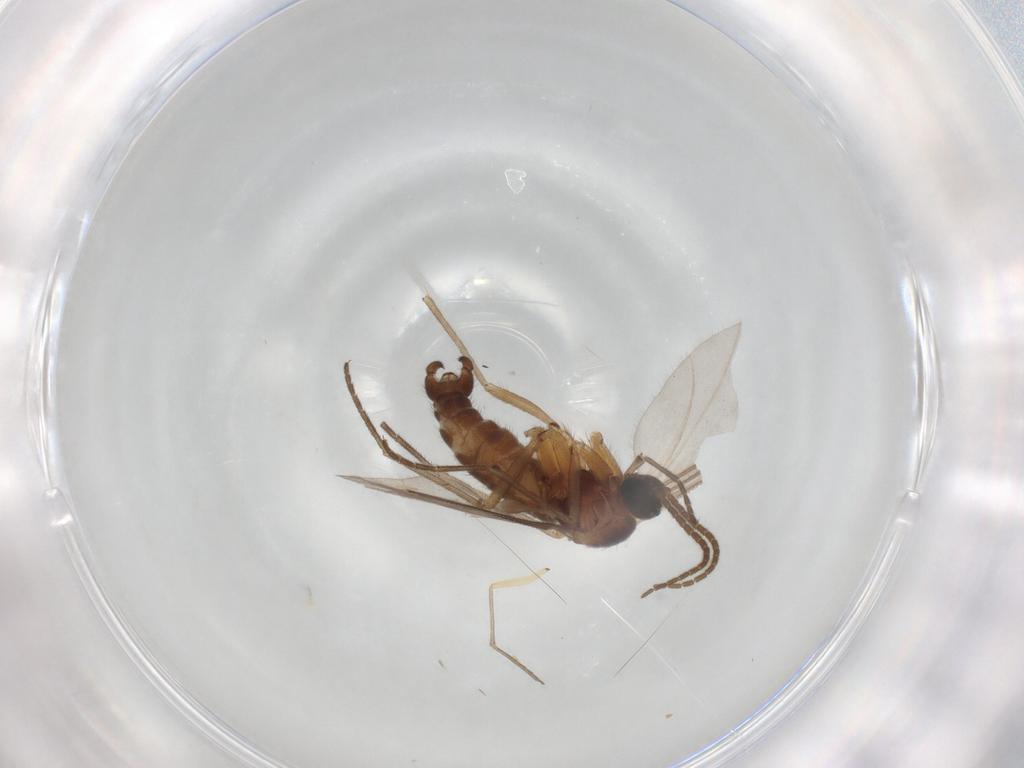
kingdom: Animalia
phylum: Arthropoda
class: Insecta
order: Diptera
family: Sciaridae
